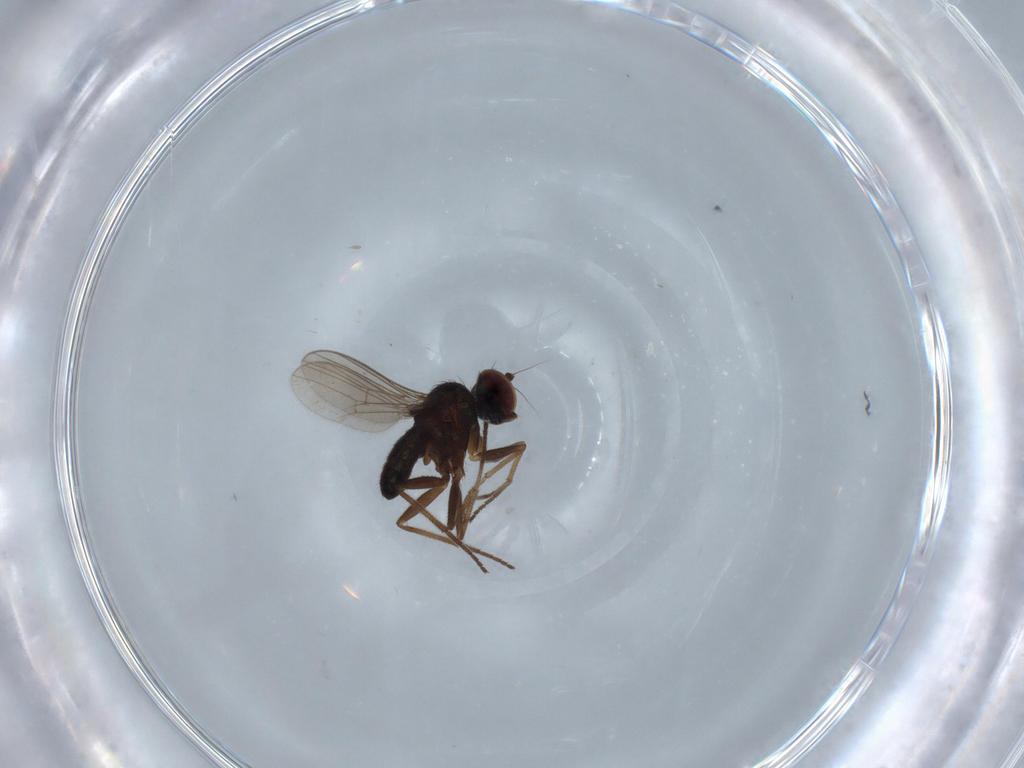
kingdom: Animalia
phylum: Arthropoda
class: Insecta
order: Diptera
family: Dolichopodidae
